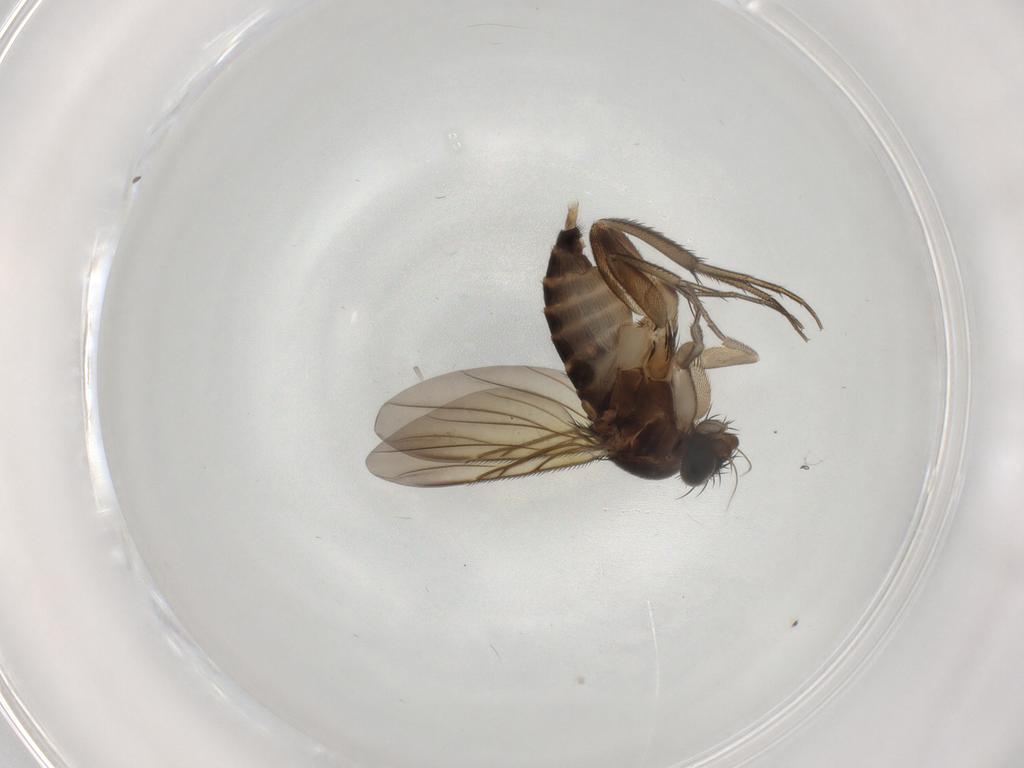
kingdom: Animalia
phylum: Arthropoda
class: Insecta
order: Diptera
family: Phoridae
